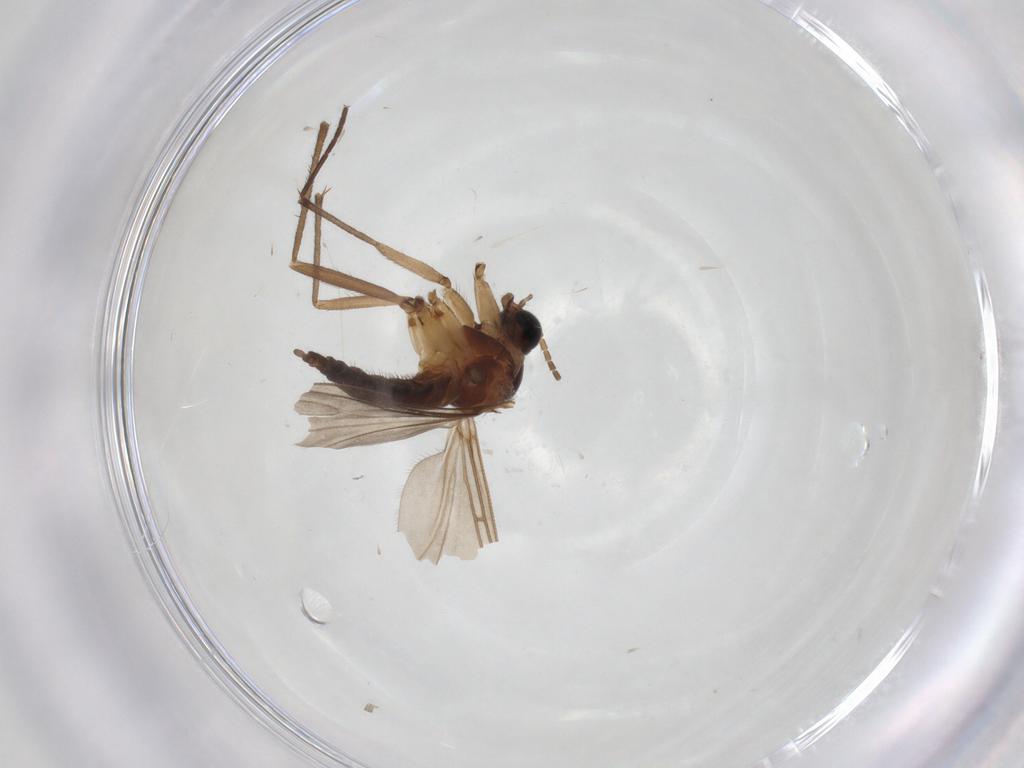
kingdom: Animalia
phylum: Arthropoda
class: Insecta
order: Diptera
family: Sciaridae
